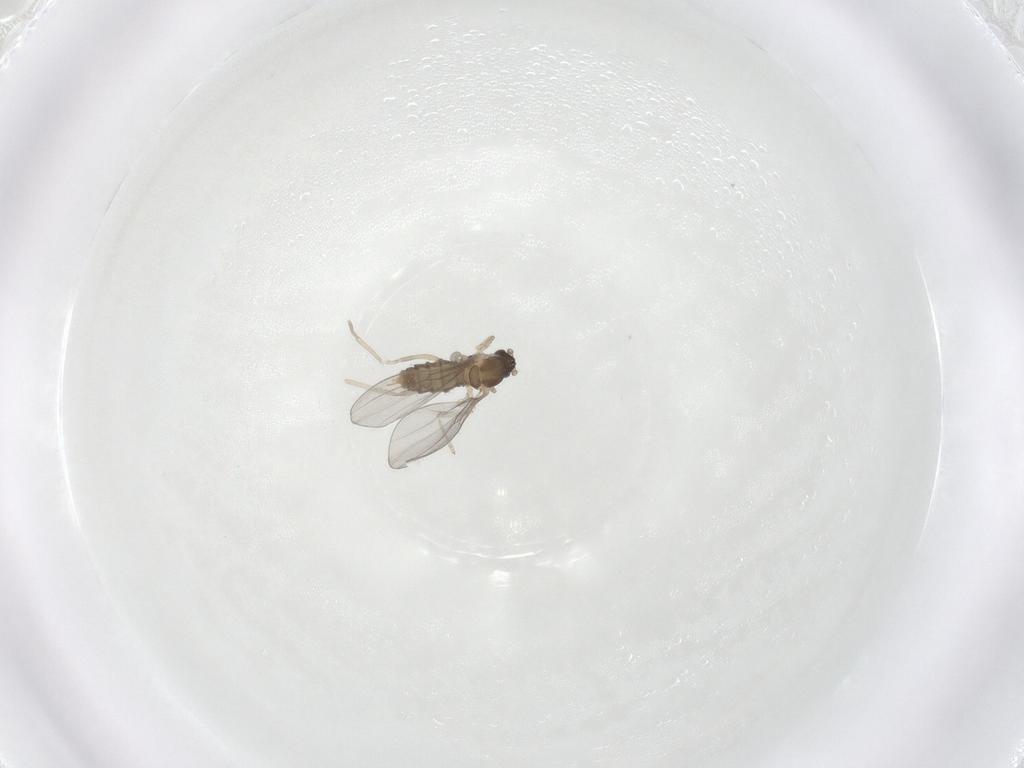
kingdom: Animalia
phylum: Arthropoda
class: Insecta
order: Diptera
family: Cecidomyiidae
